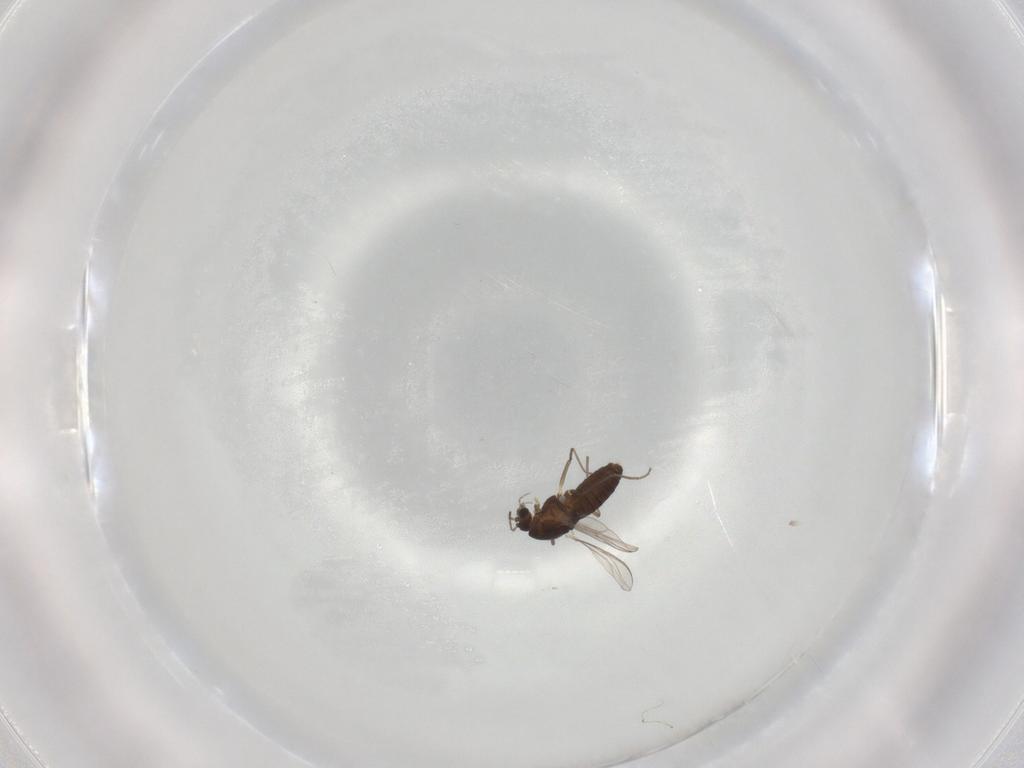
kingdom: Animalia
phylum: Arthropoda
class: Insecta
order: Diptera
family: Chironomidae
